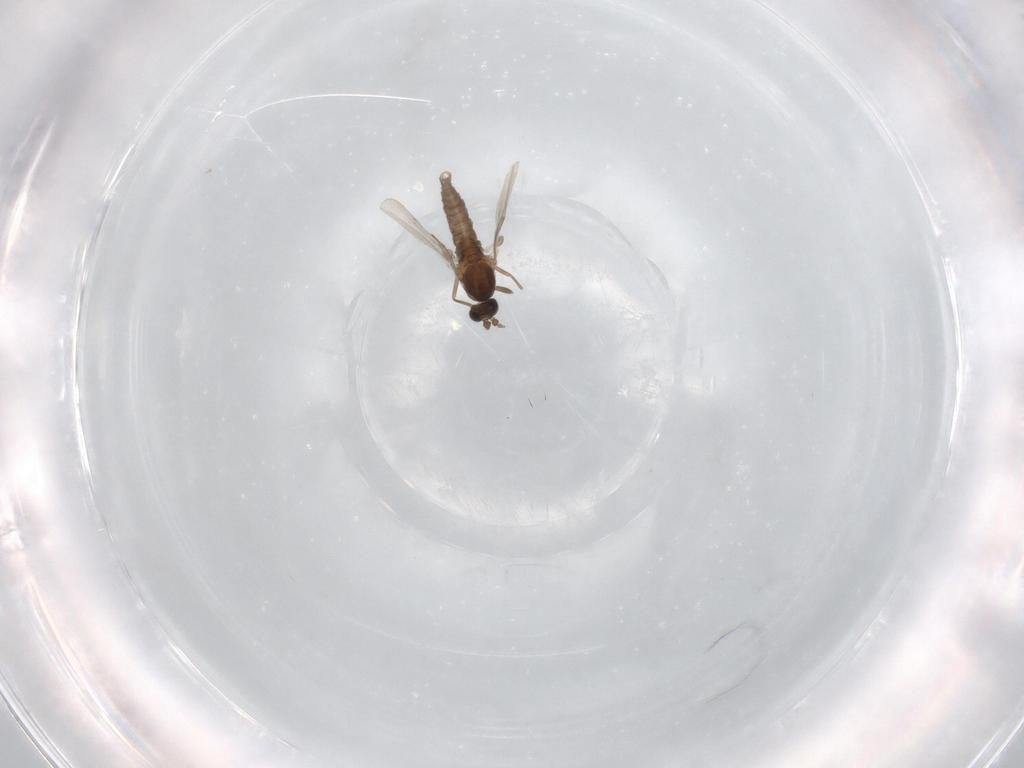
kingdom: Animalia
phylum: Arthropoda
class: Insecta
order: Diptera
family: Cecidomyiidae
